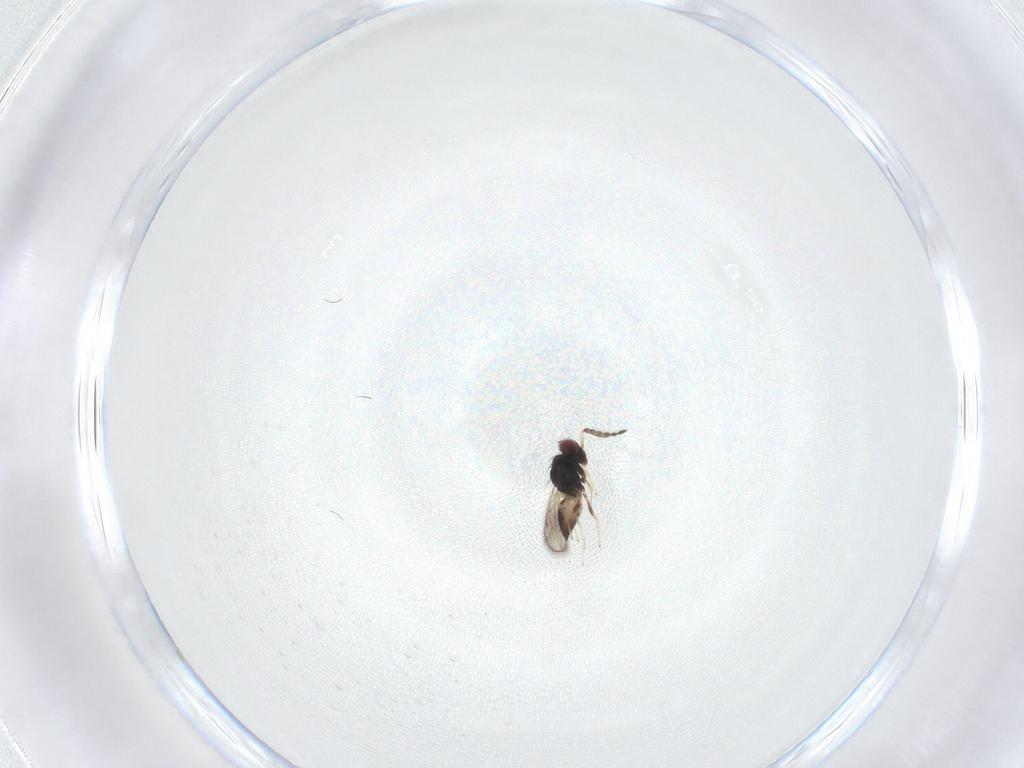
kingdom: Animalia
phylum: Arthropoda
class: Insecta
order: Hymenoptera
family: Eulophidae
